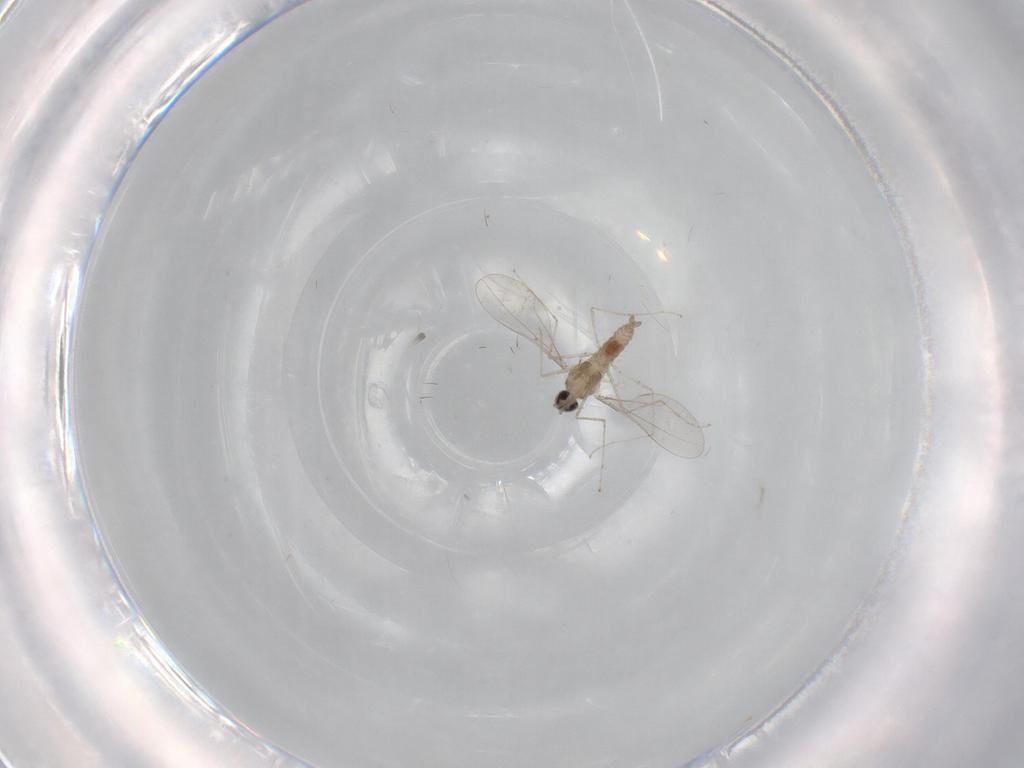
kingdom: Animalia
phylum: Arthropoda
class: Insecta
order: Diptera
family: Cecidomyiidae
